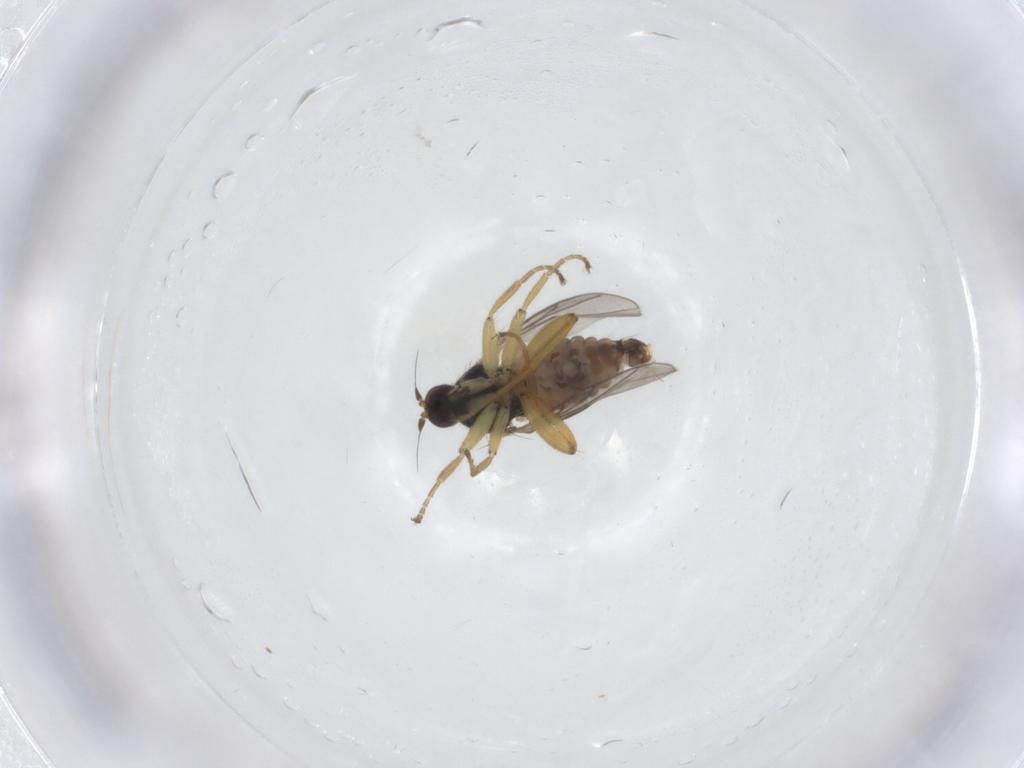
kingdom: Animalia
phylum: Arthropoda
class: Insecta
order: Diptera
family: Hybotidae
